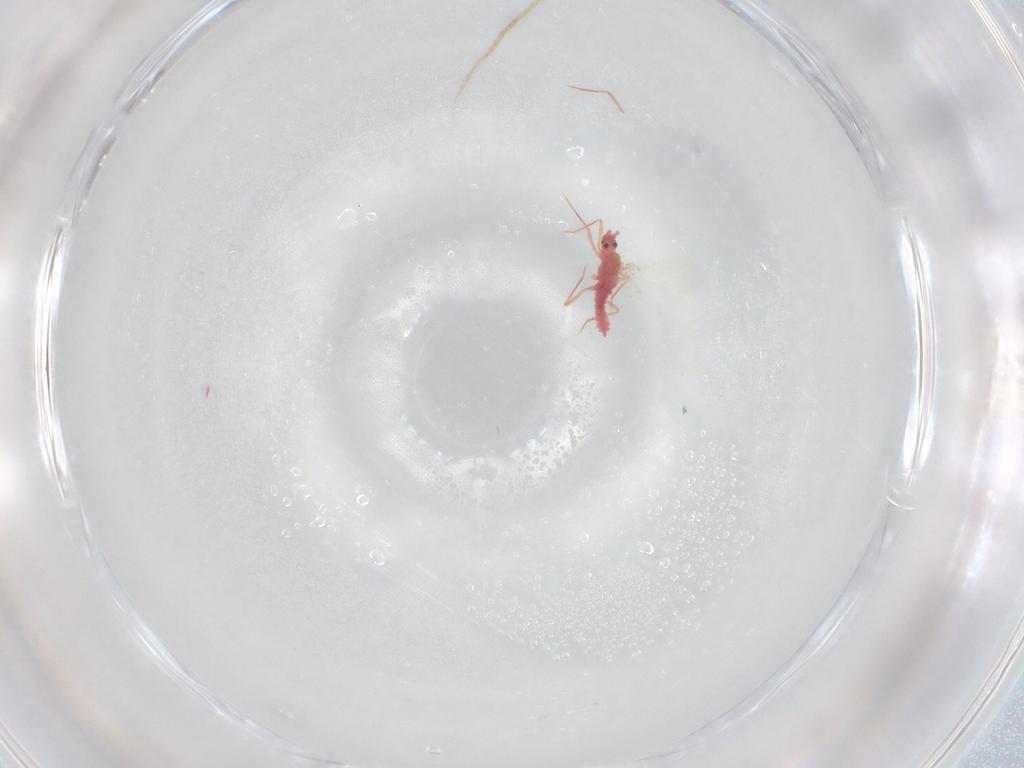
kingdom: Animalia
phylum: Arthropoda
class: Insecta
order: Hemiptera
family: Pseudococcidae
